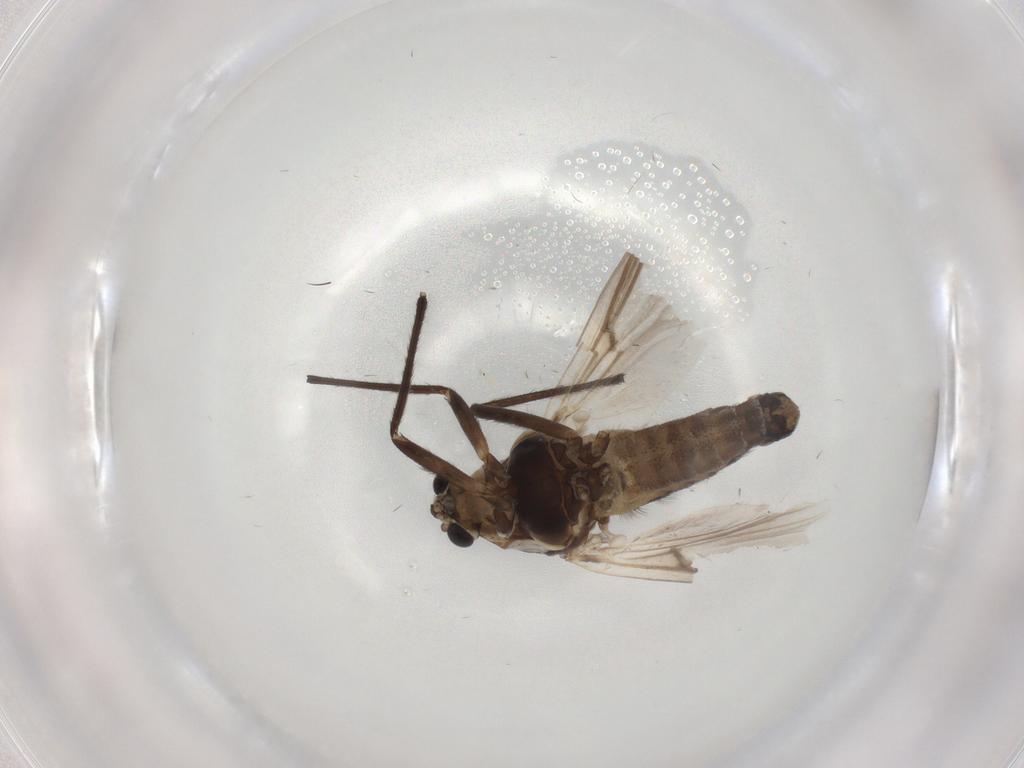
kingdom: Animalia
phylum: Arthropoda
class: Insecta
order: Diptera
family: Chironomidae
